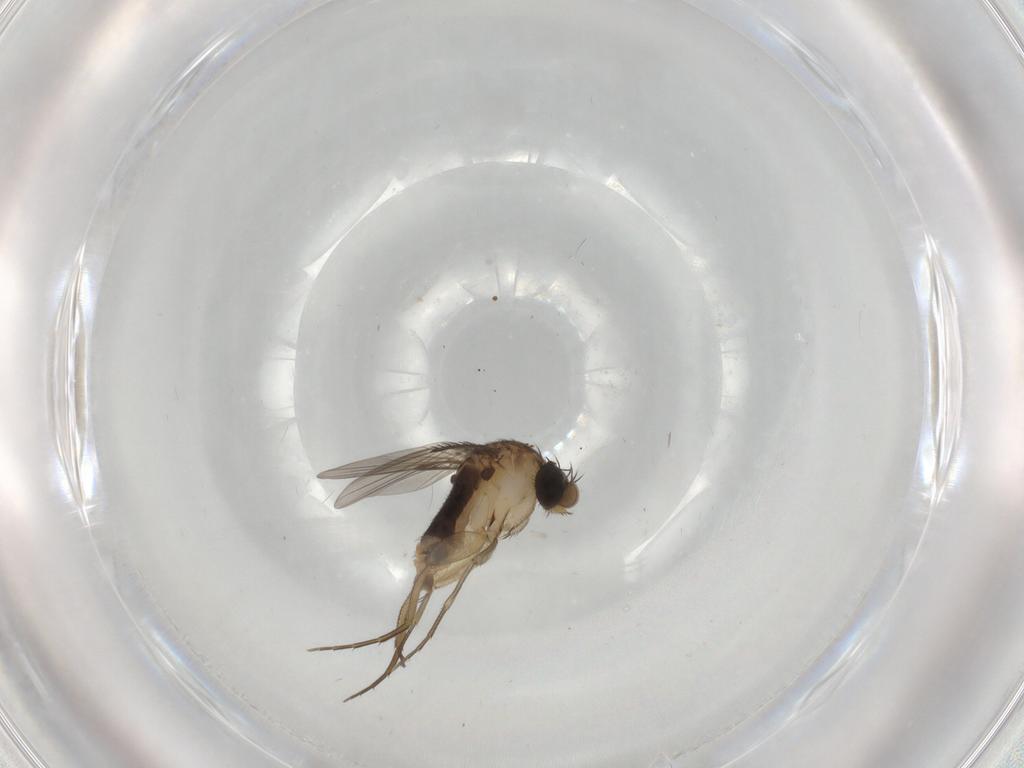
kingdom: Animalia
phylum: Arthropoda
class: Insecta
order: Diptera
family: Phoridae
